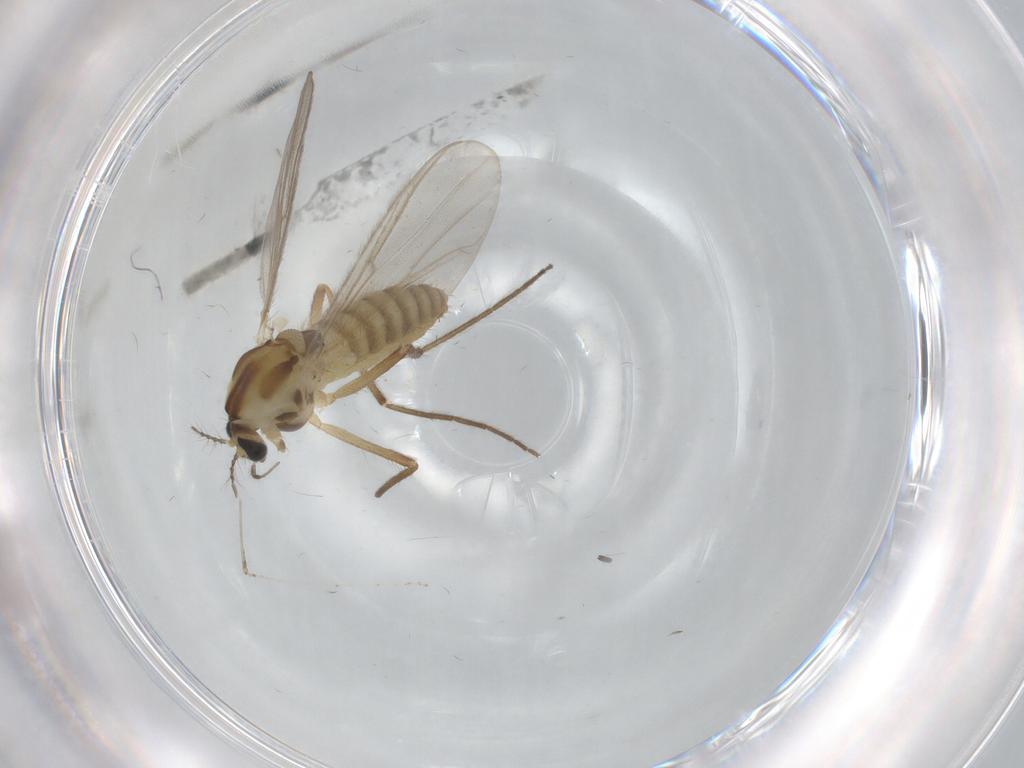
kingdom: Animalia
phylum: Arthropoda
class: Insecta
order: Diptera
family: Chironomidae
